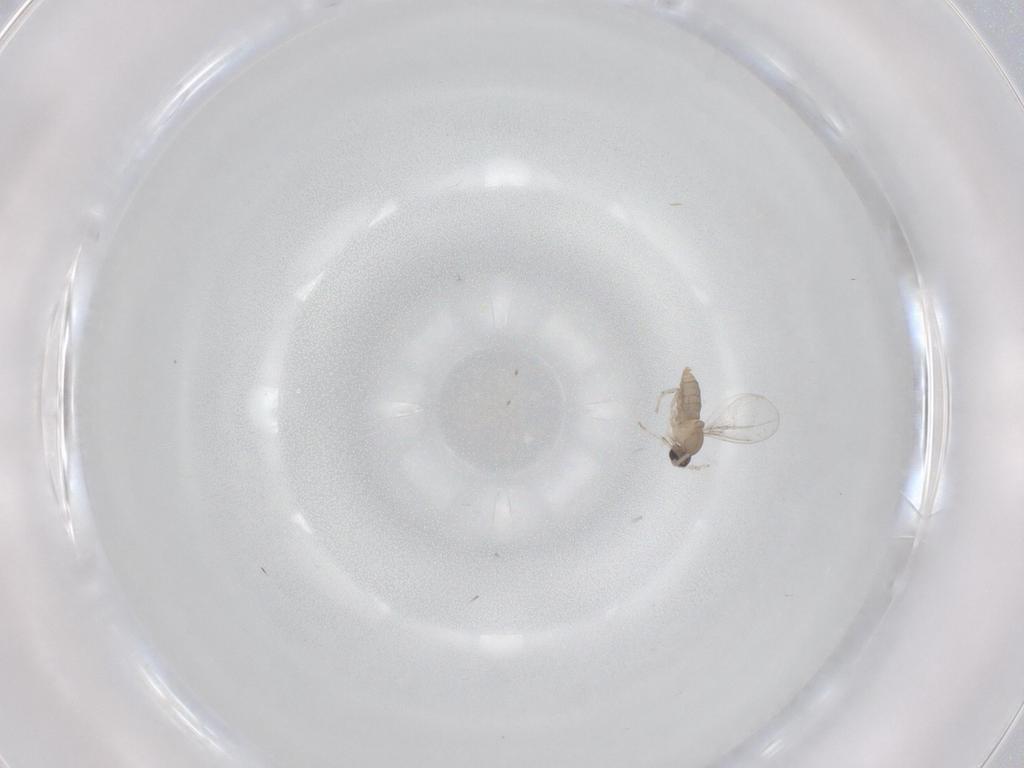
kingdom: Animalia
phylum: Arthropoda
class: Insecta
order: Diptera
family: Cecidomyiidae
